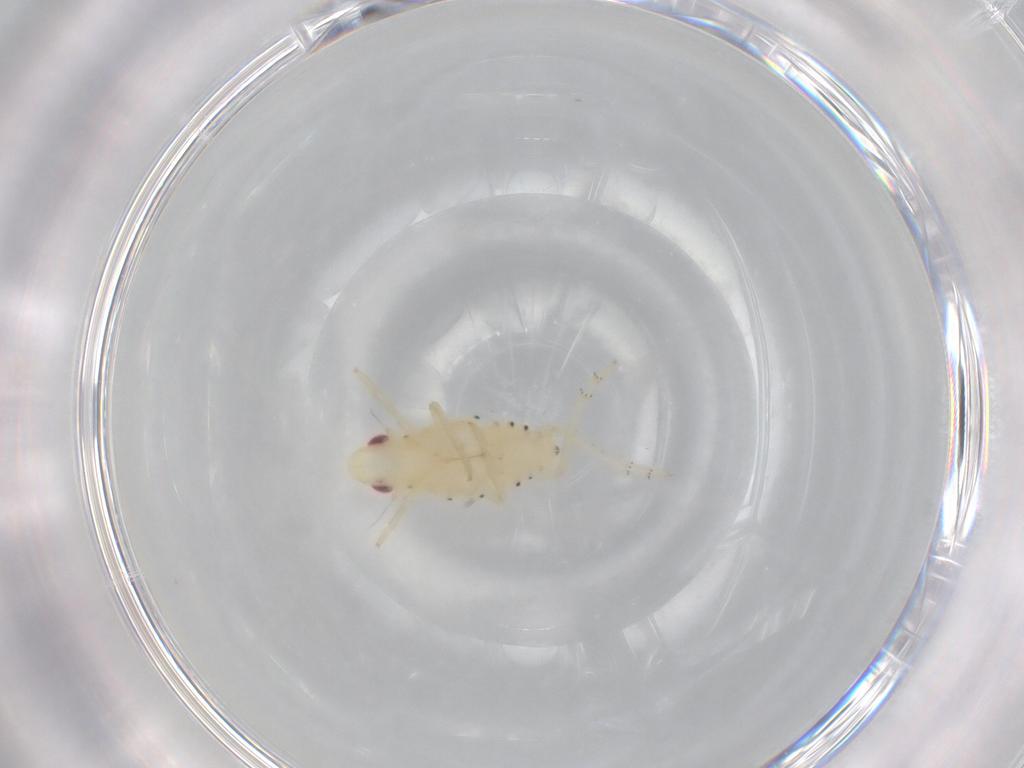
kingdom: Animalia
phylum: Arthropoda
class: Insecta
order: Hemiptera
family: Tropiduchidae
